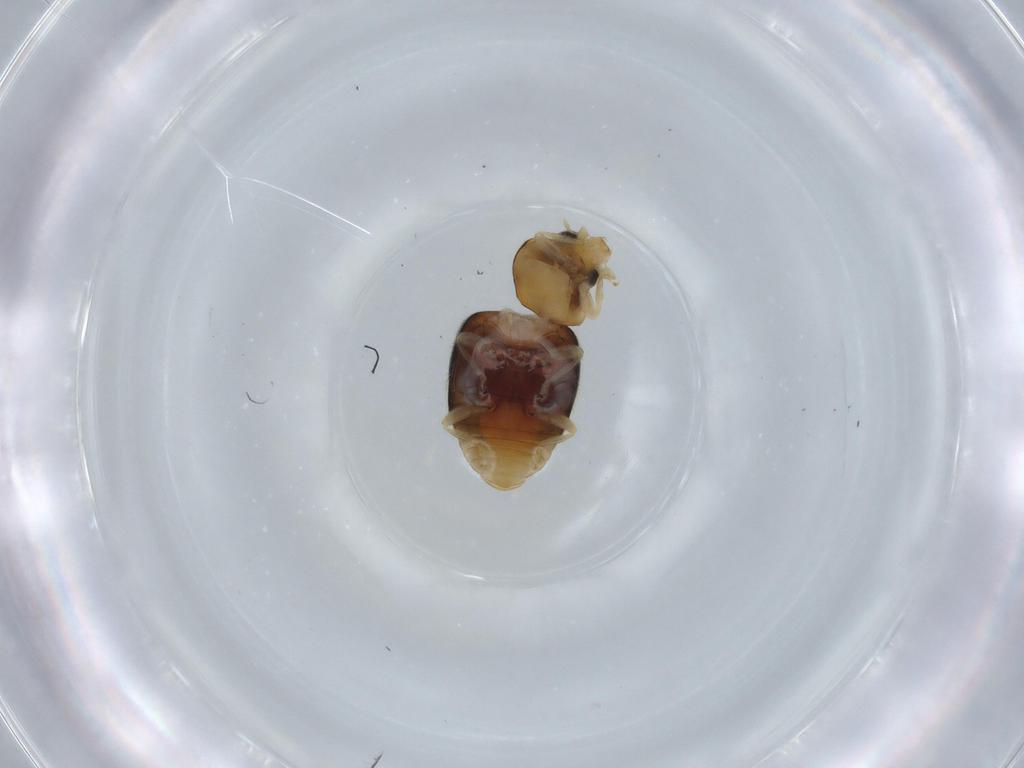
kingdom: Animalia
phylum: Arthropoda
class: Insecta
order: Coleoptera
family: Coccinellidae
